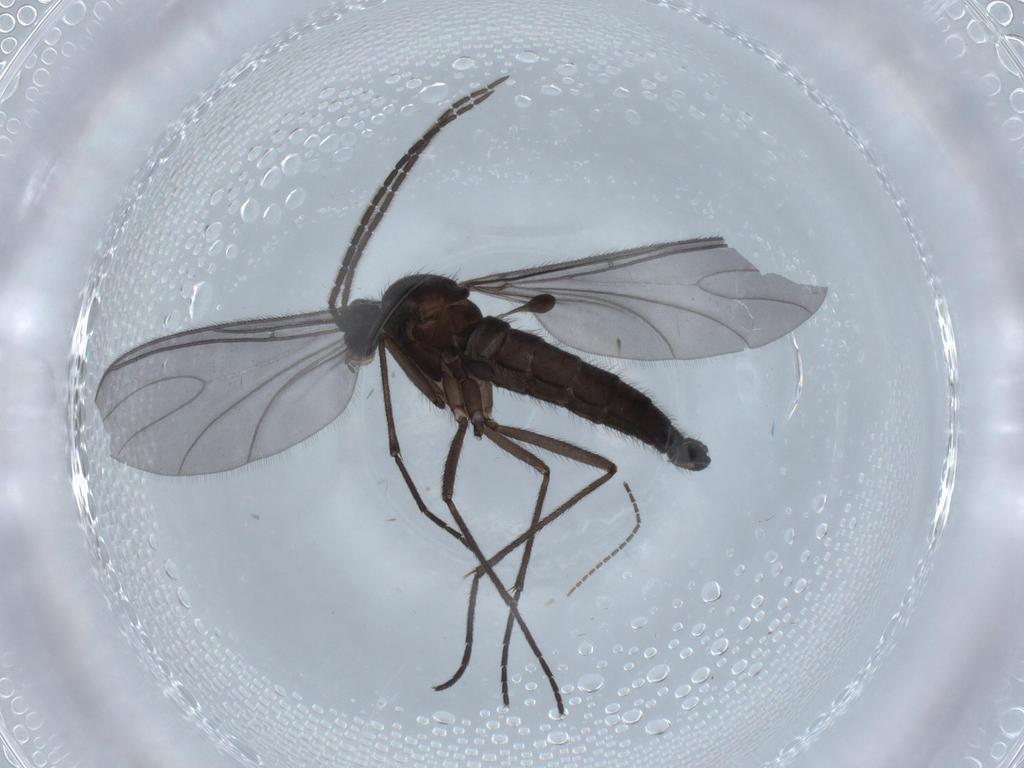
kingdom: Animalia
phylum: Arthropoda
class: Insecta
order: Diptera
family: Sciaridae
